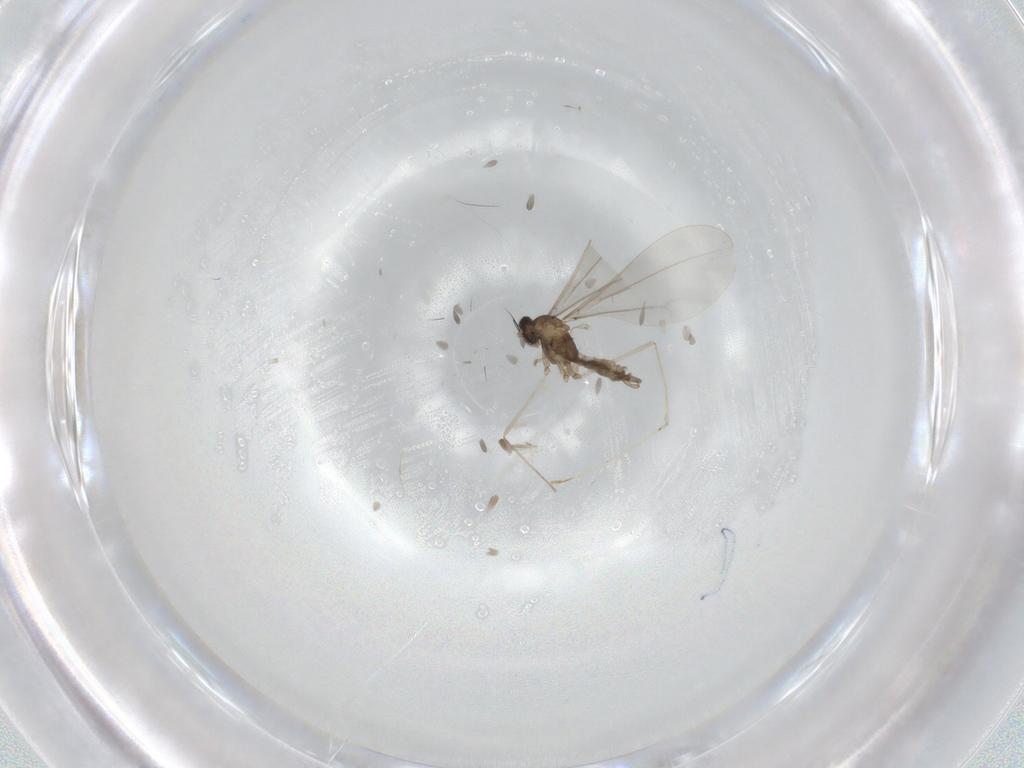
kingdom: Animalia
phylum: Arthropoda
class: Insecta
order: Diptera
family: Cecidomyiidae
